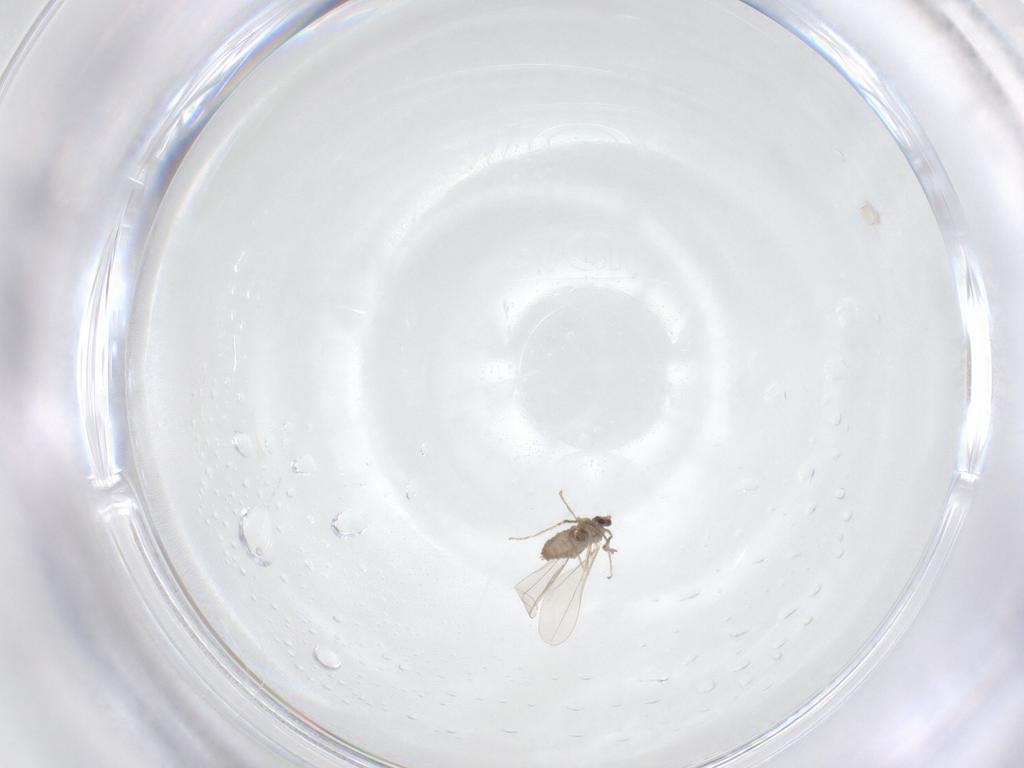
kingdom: Animalia
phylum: Arthropoda
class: Insecta
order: Diptera
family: Cecidomyiidae
